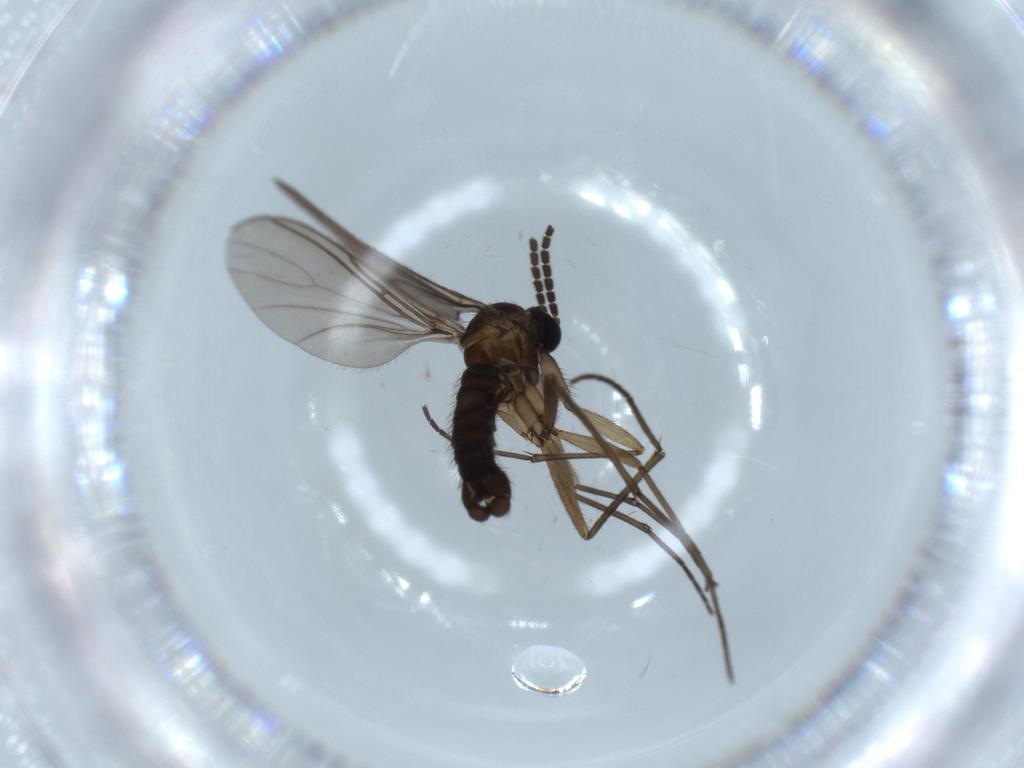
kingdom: Animalia
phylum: Arthropoda
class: Insecta
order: Diptera
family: Sciaridae
